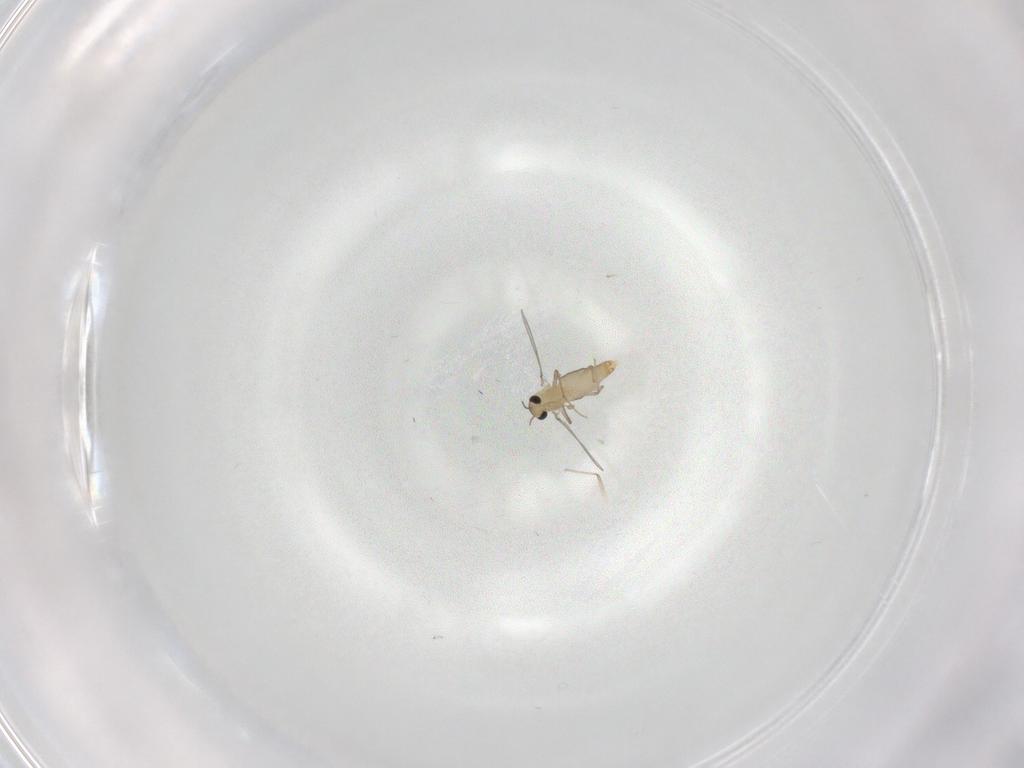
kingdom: Animalia
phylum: Arthropoda
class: Insecta
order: Diptera
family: Chironomidae
